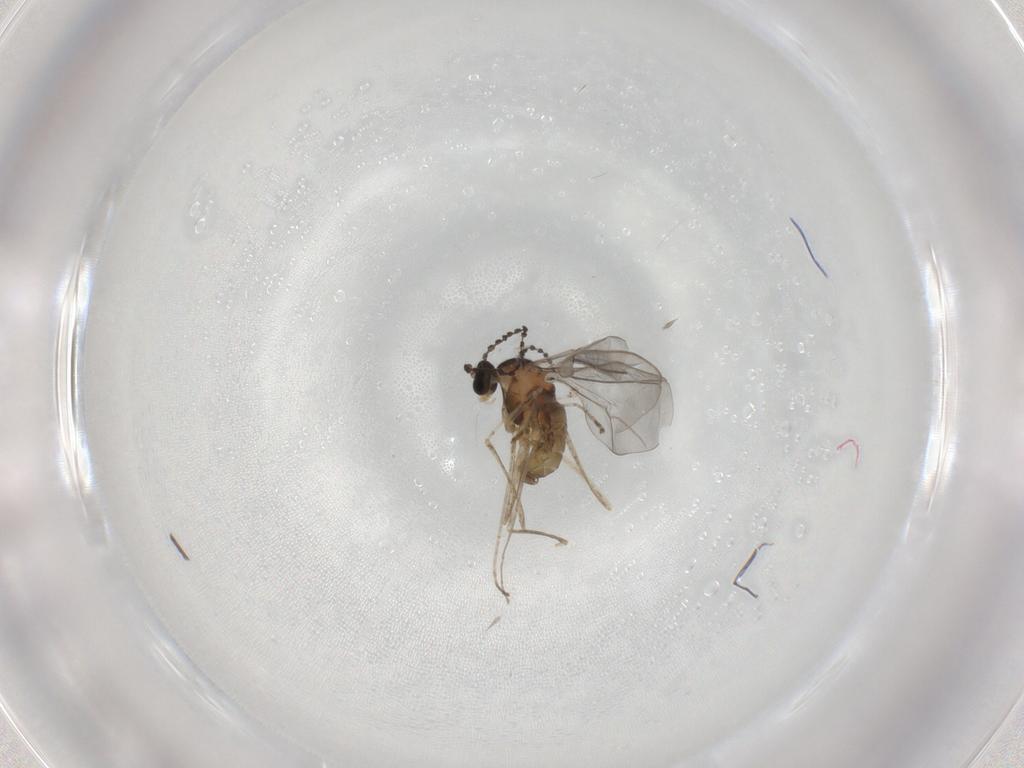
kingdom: Animalia
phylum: Arthropoda
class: Insecta
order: Diptera
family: Cecidomyiidae
